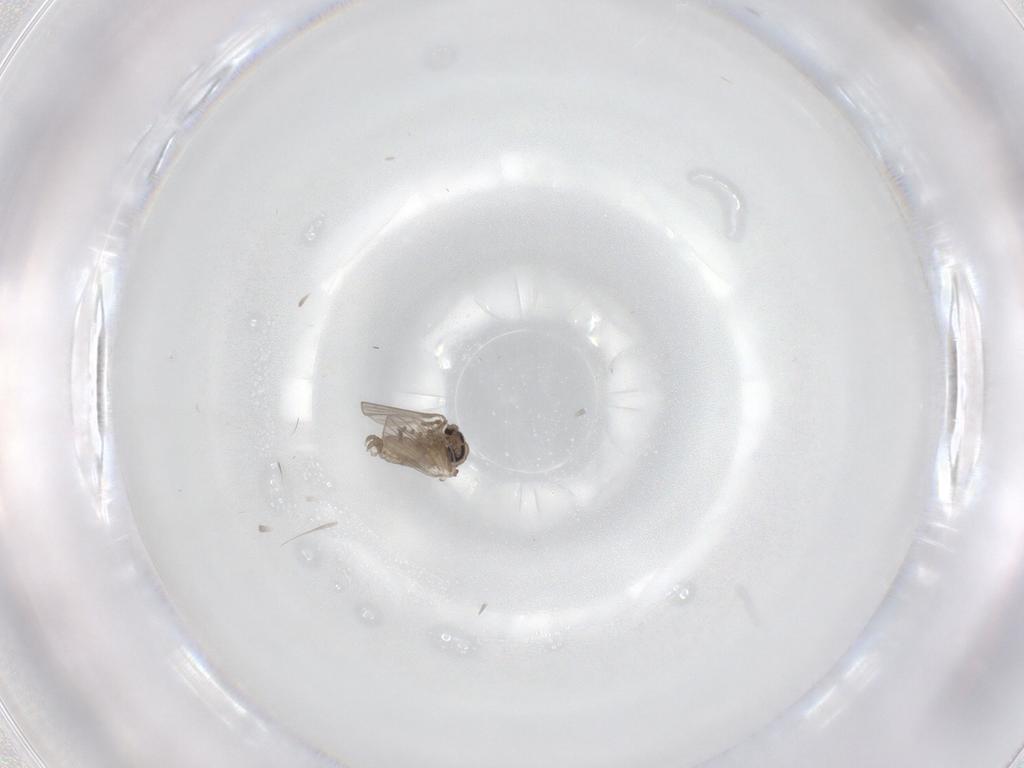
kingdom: Animalia
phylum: Arthropoda
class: Insecta
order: Diptera
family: Psychodidae
